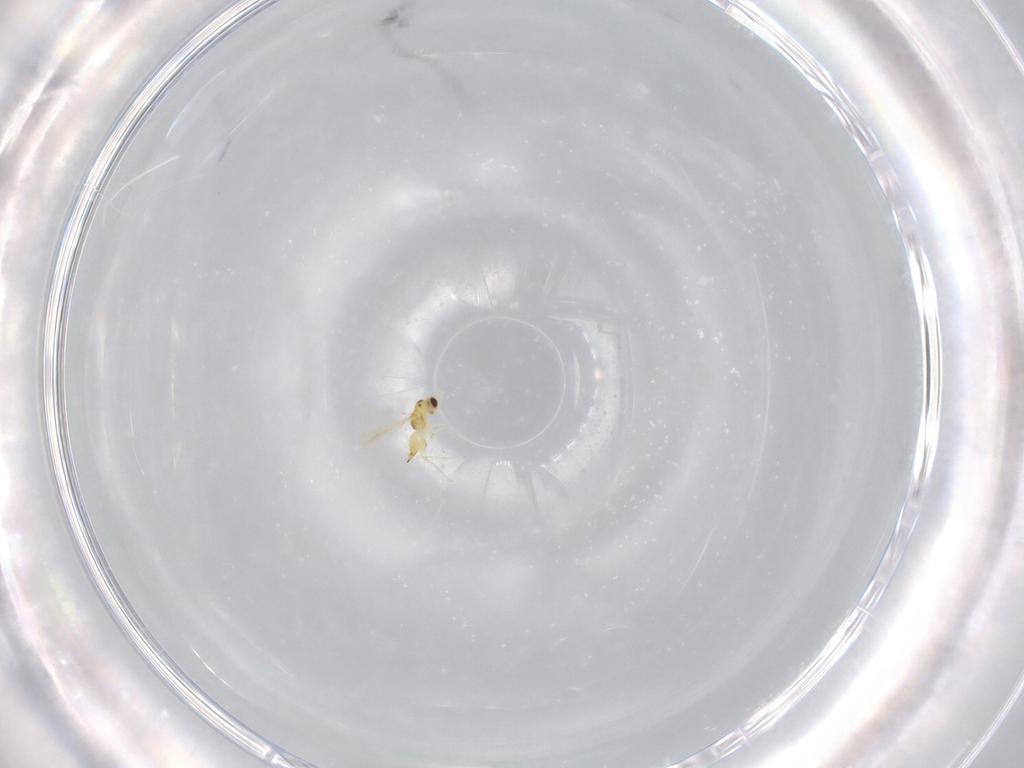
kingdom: Animalia
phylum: Arthropoda
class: Insecta
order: Hymenoptera
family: Mymaridae
